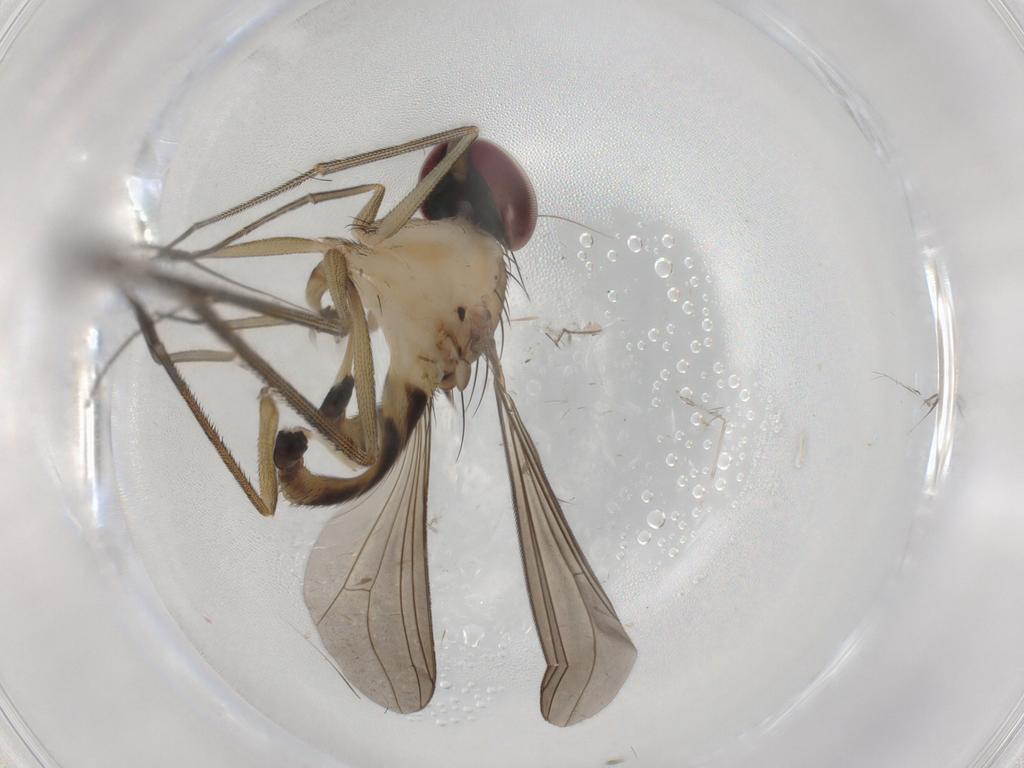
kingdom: Animalia
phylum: Arthropoda
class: Insecta
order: Diptera
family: Dolichopodidae
